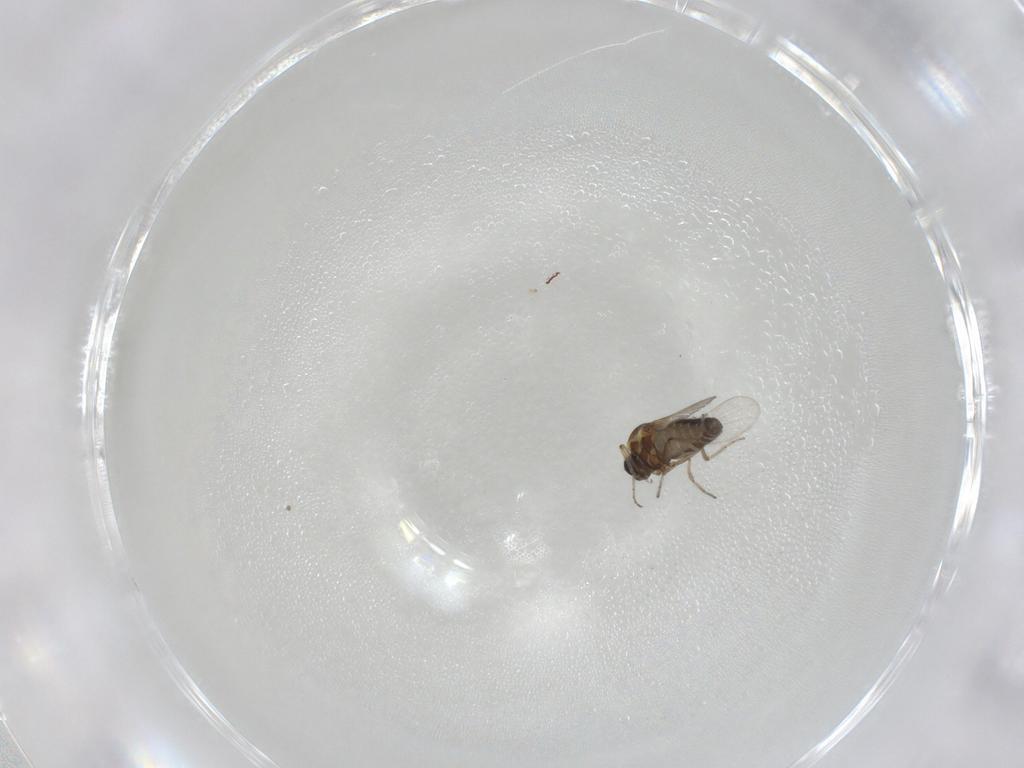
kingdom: Animalia
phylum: Arthropoda
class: Insecta
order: Diptera
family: Ceratopogonidae
